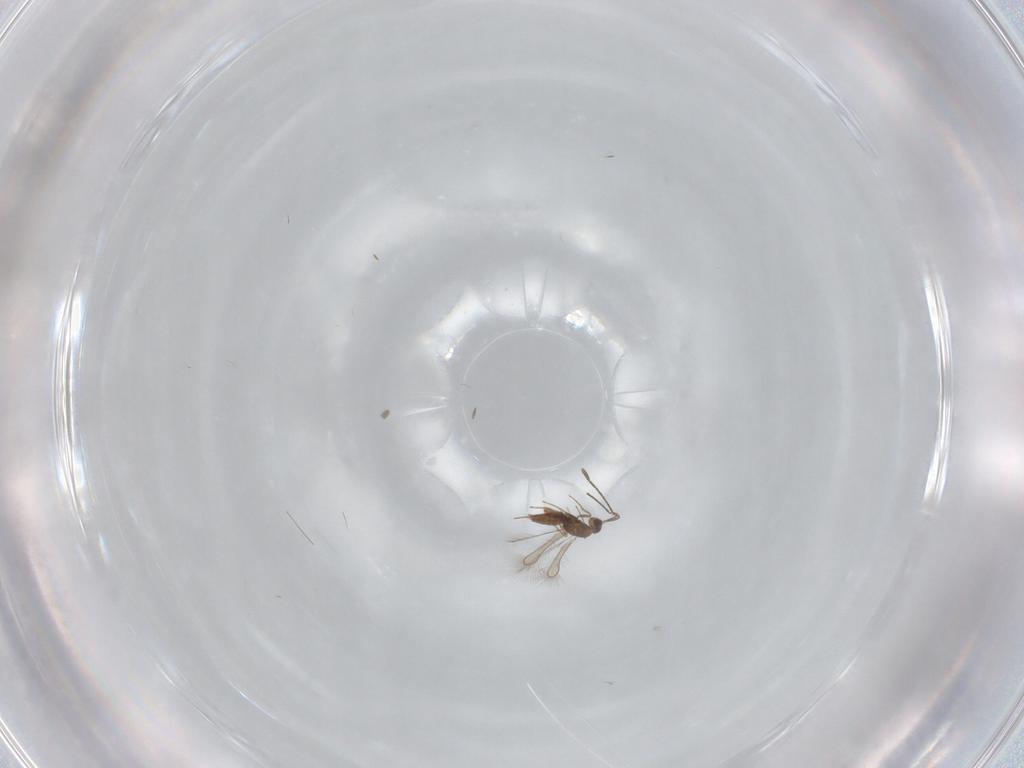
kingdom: Animalia
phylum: Arthropoda
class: Insecta
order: Hymenoptera
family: Mymaridae
